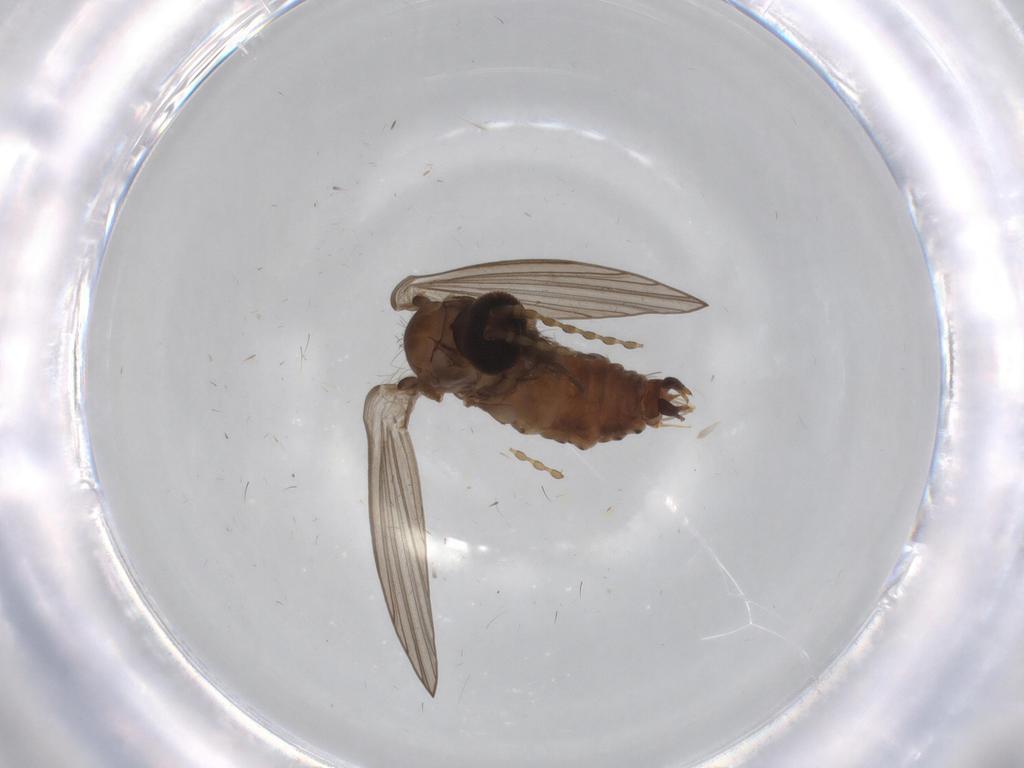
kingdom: Animalia
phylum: Arthropoda
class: Insecta
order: Diptera
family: Psychodidae
